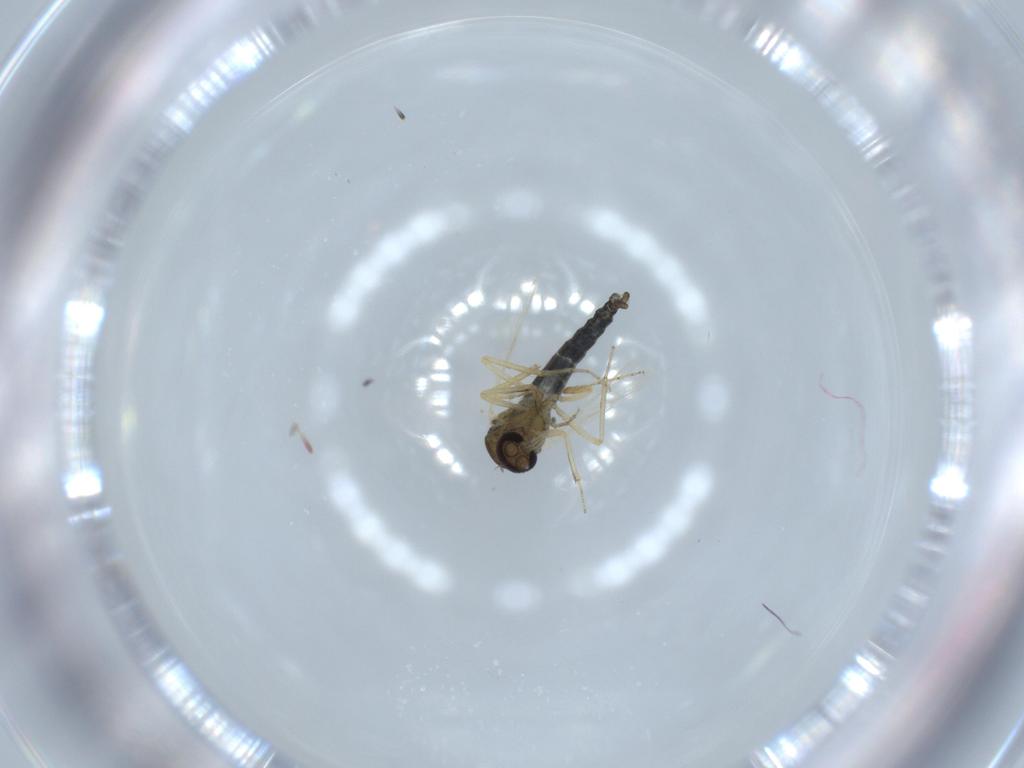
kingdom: Animalia
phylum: Arthropoda
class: Insecta
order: Diptera
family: Ceratopogonidae
